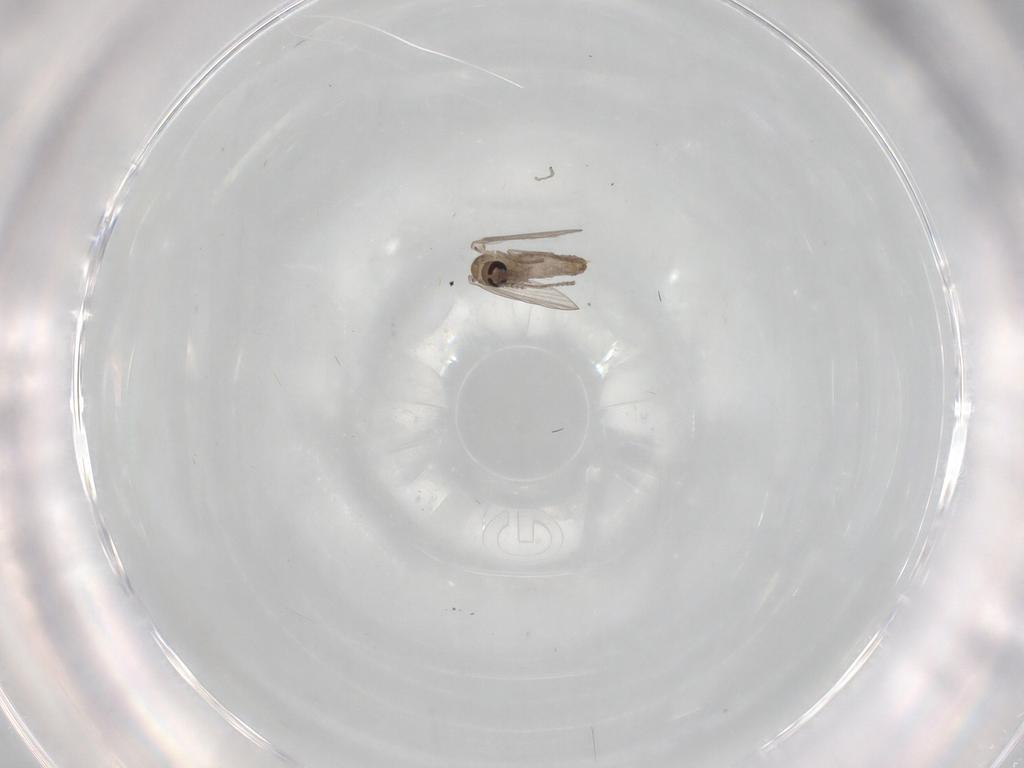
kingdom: Animalia
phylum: Arthropoda
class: Insecta
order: Diptera
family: Psychodidae
